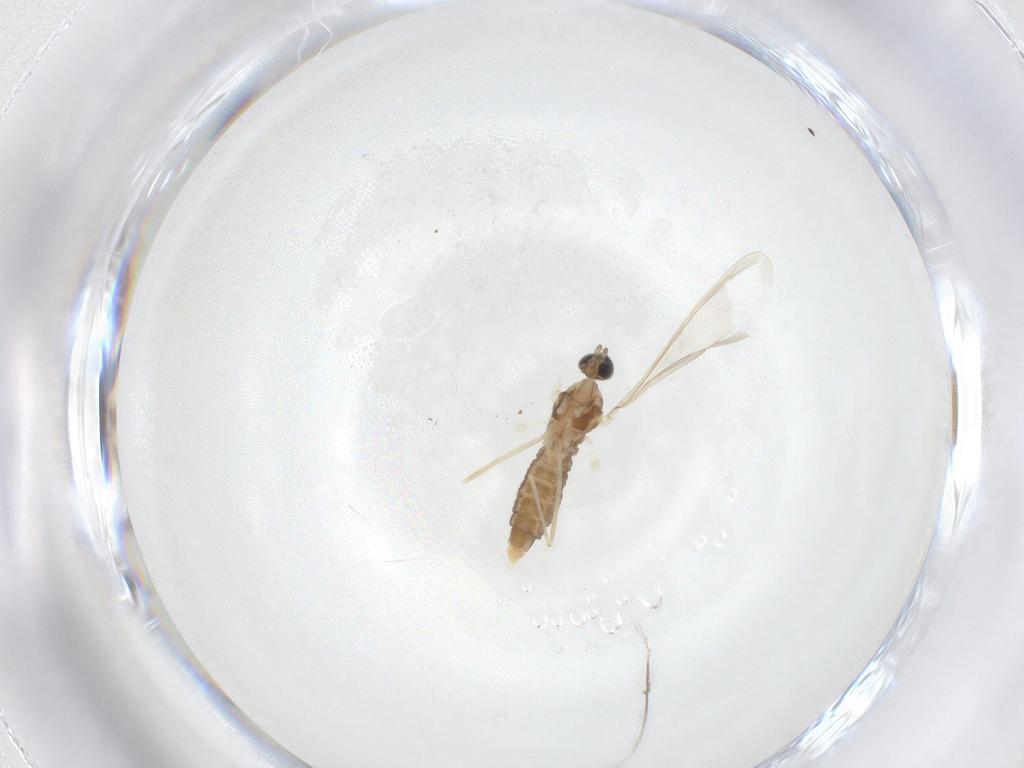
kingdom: Animalia
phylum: Arthropoda
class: Insecta
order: Diptera
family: Cecidomyiidae
